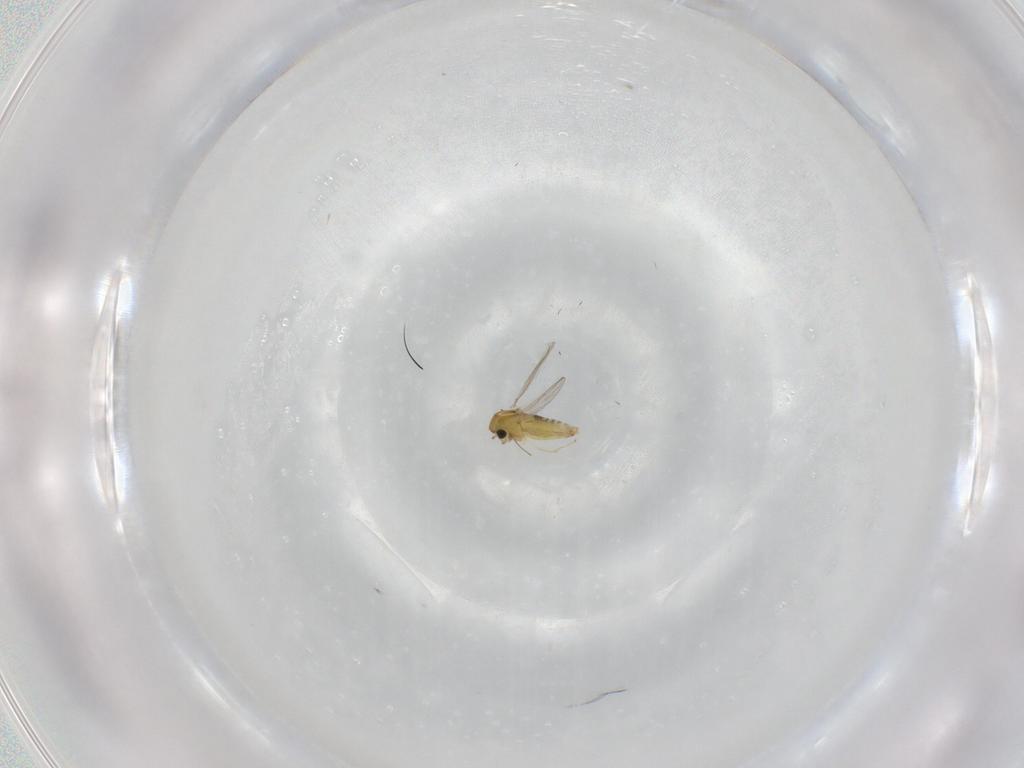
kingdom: Animalia
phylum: Arthropoda
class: Insecta
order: Diptera
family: Chironomidae
